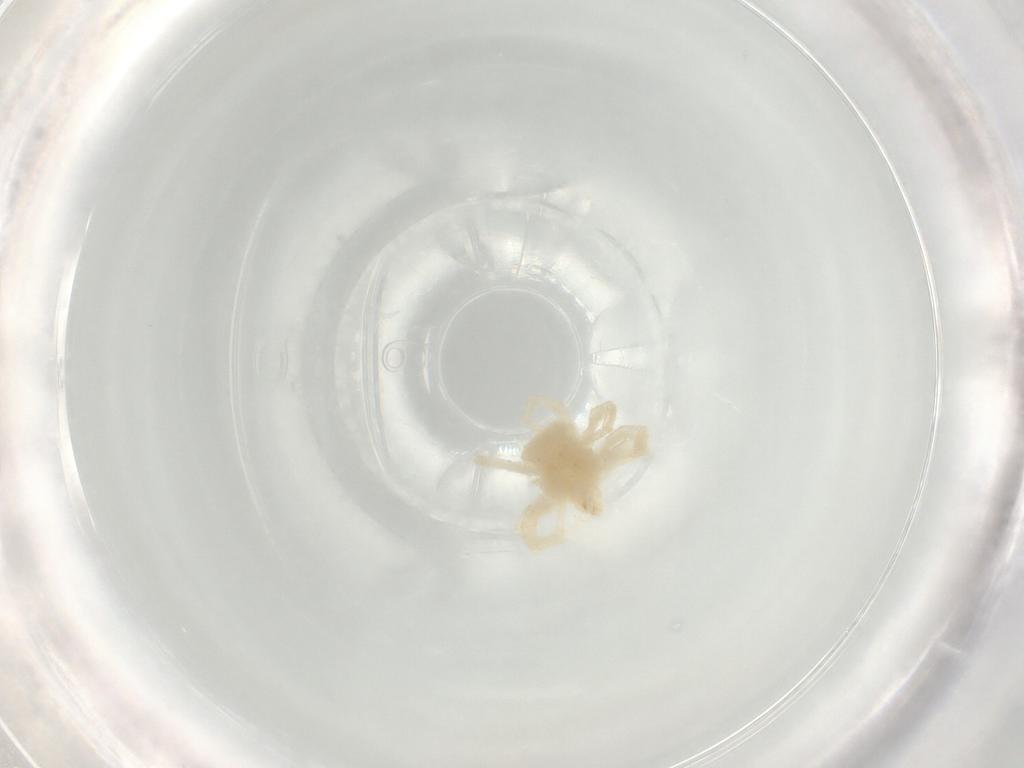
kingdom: Animalia
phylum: Arthropoda
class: Arachnida
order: Trombidiformes
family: Anystidae
